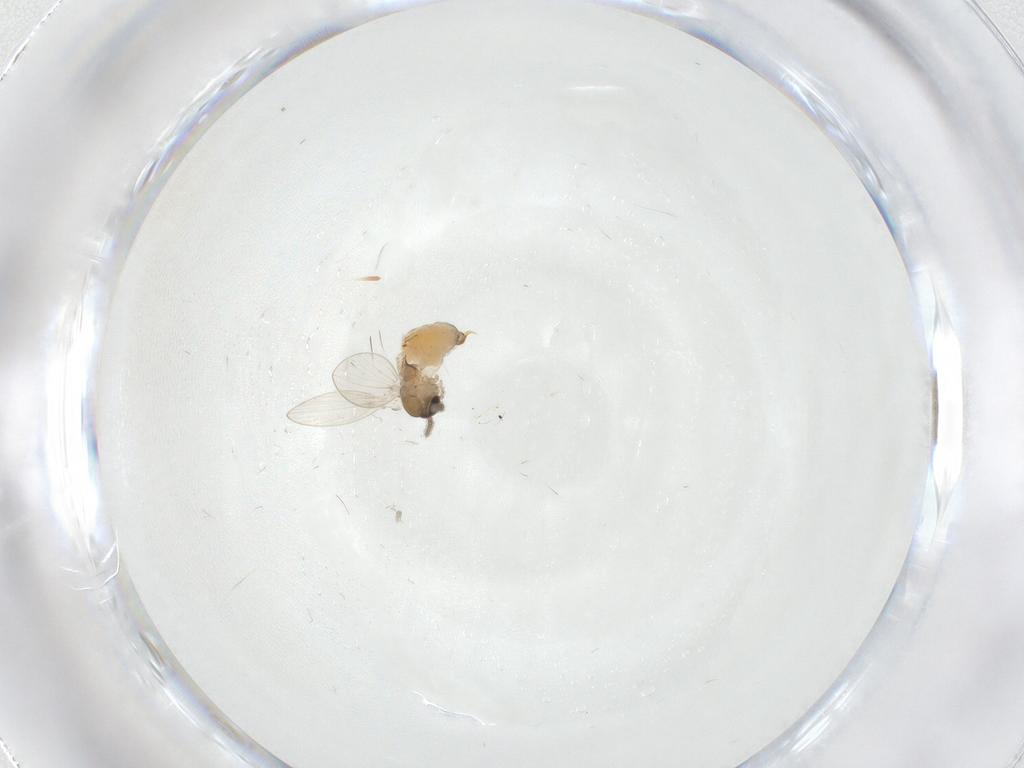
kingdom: Animalia
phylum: Arthropoda
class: Insecta
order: Diptera
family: Psychodidae
